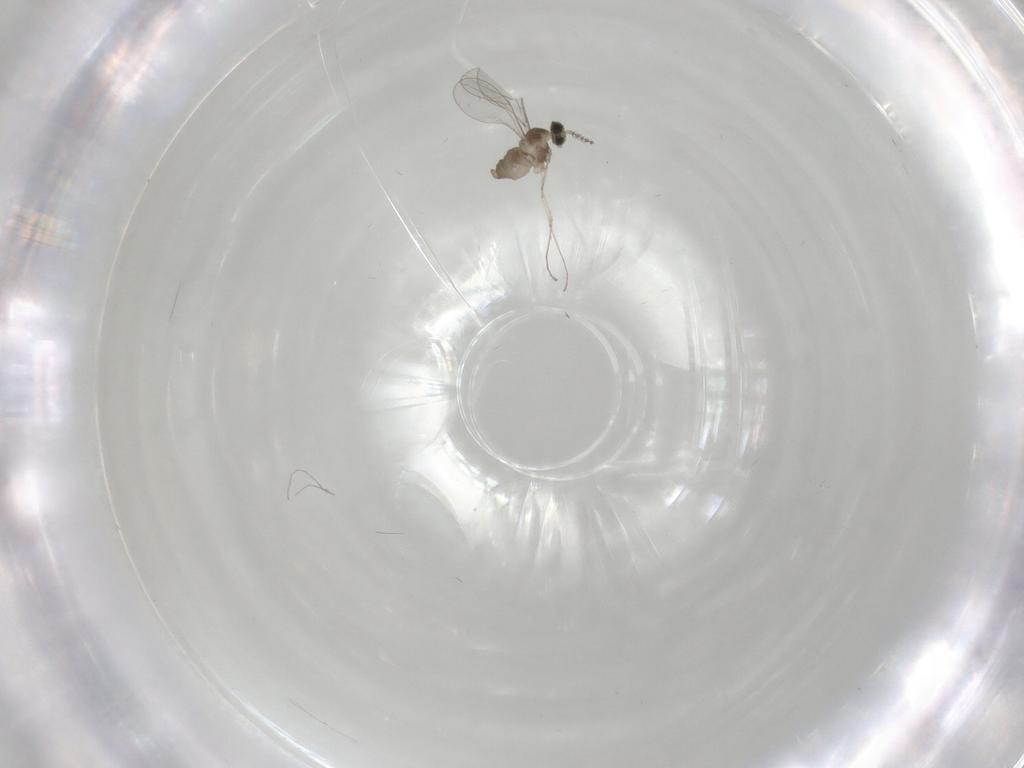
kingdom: Animalia
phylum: Arthropoda
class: Insecta
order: Diptera
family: Cecidomyiidae
